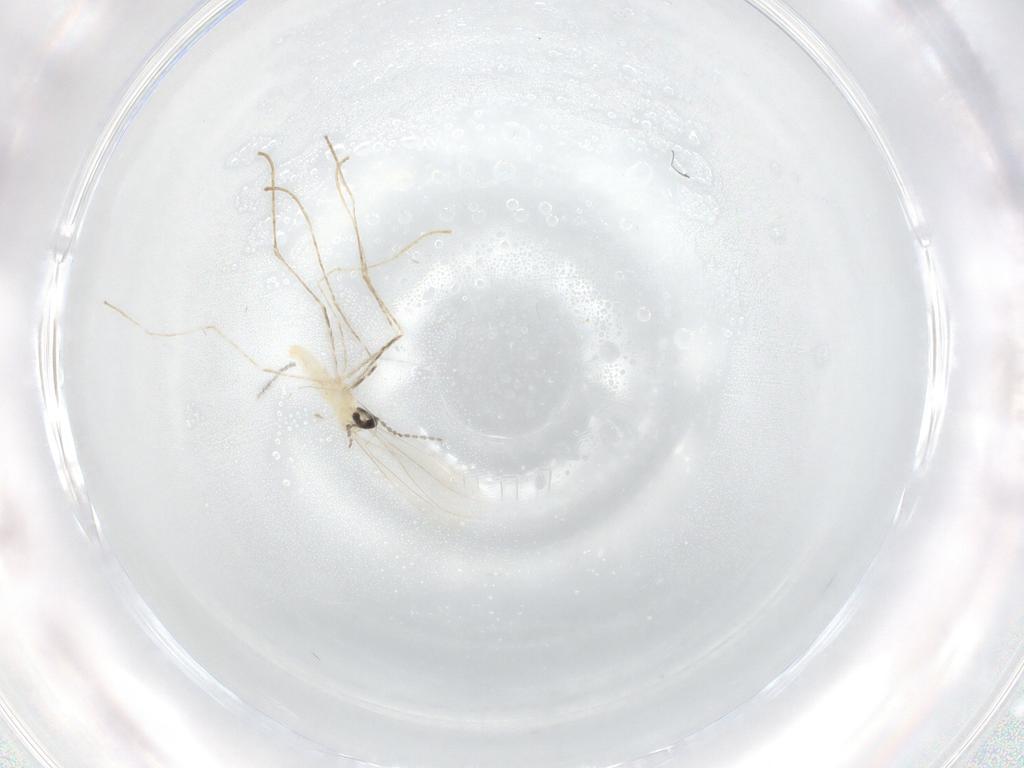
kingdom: Animalia
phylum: Arthropoda
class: Insecta
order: Diptera
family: Cecidomyiidae
